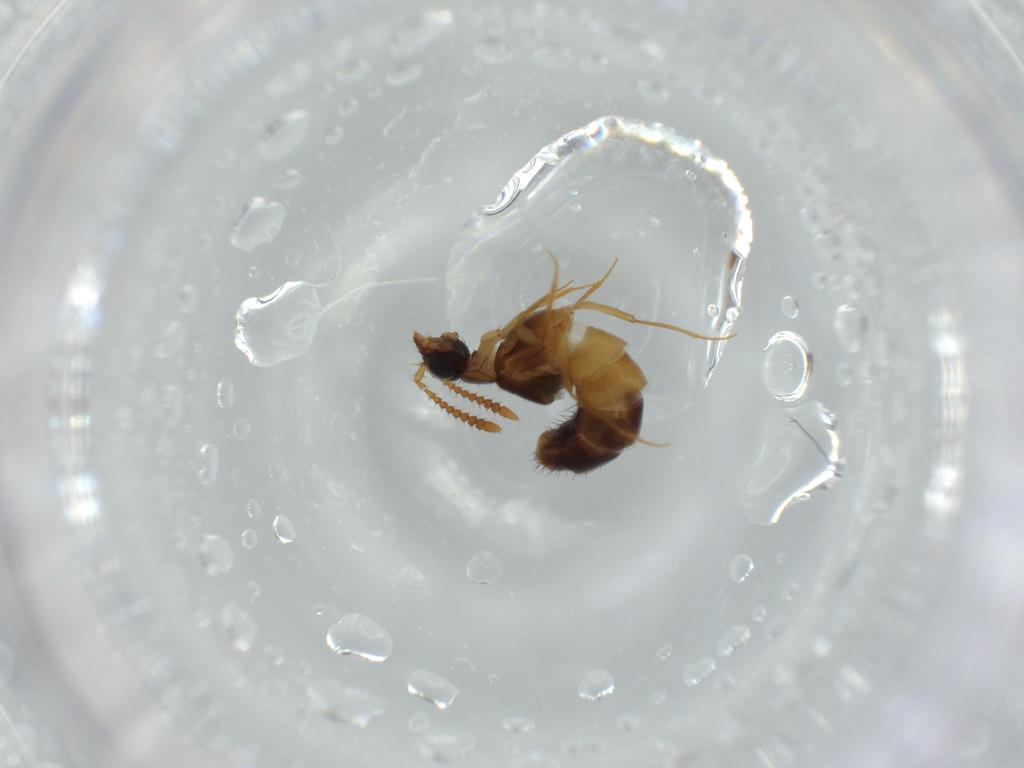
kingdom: Animalia
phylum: Arthropoda
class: Insecta
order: Coleoptera
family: Staphylinidae
